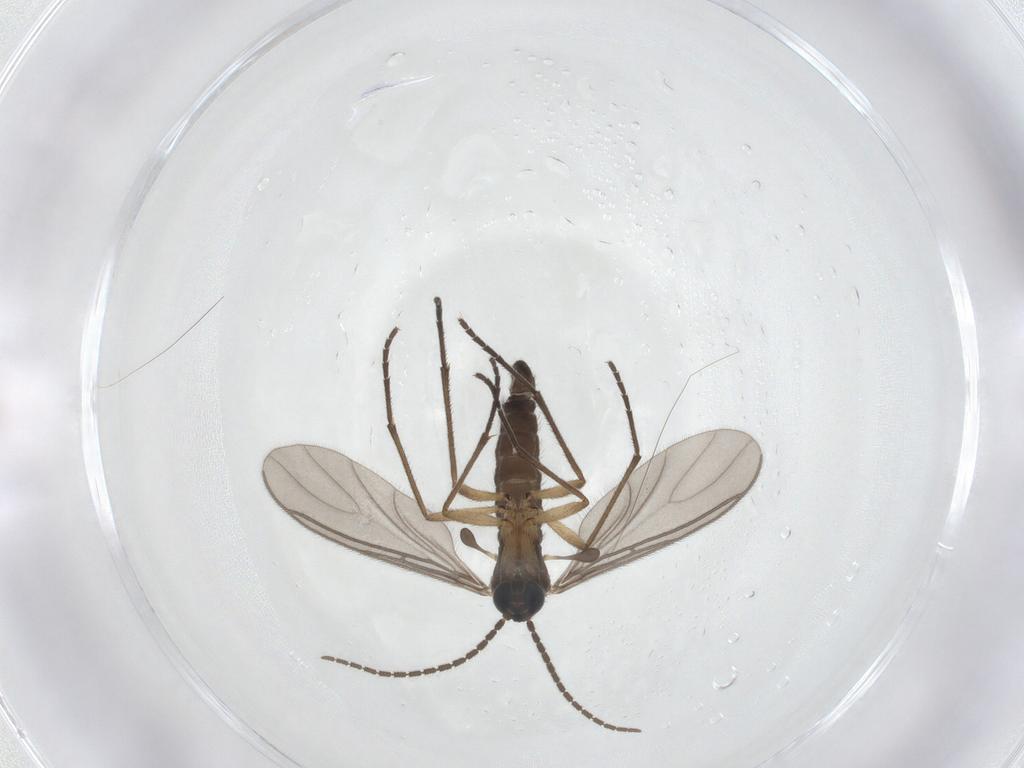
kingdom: Animalia
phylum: Arthropoda
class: Insecta
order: Diptera
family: Sciaridae
